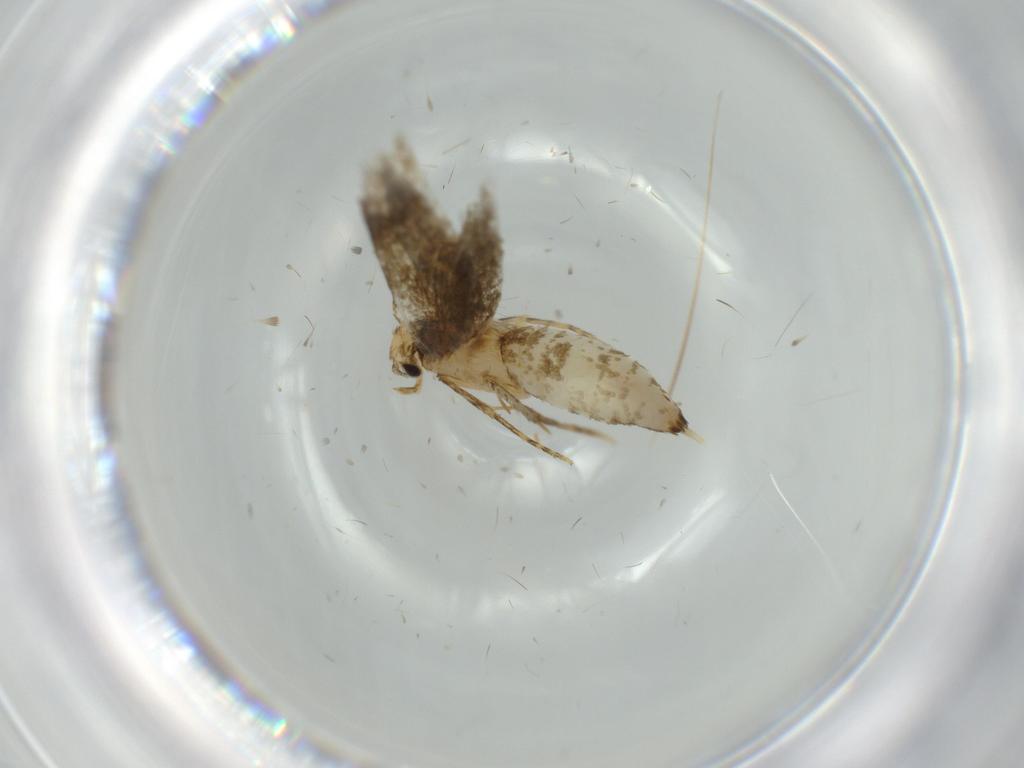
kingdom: Animalia
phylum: Arthropoda
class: Insecta
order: Lepidoptera
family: Tineidae
